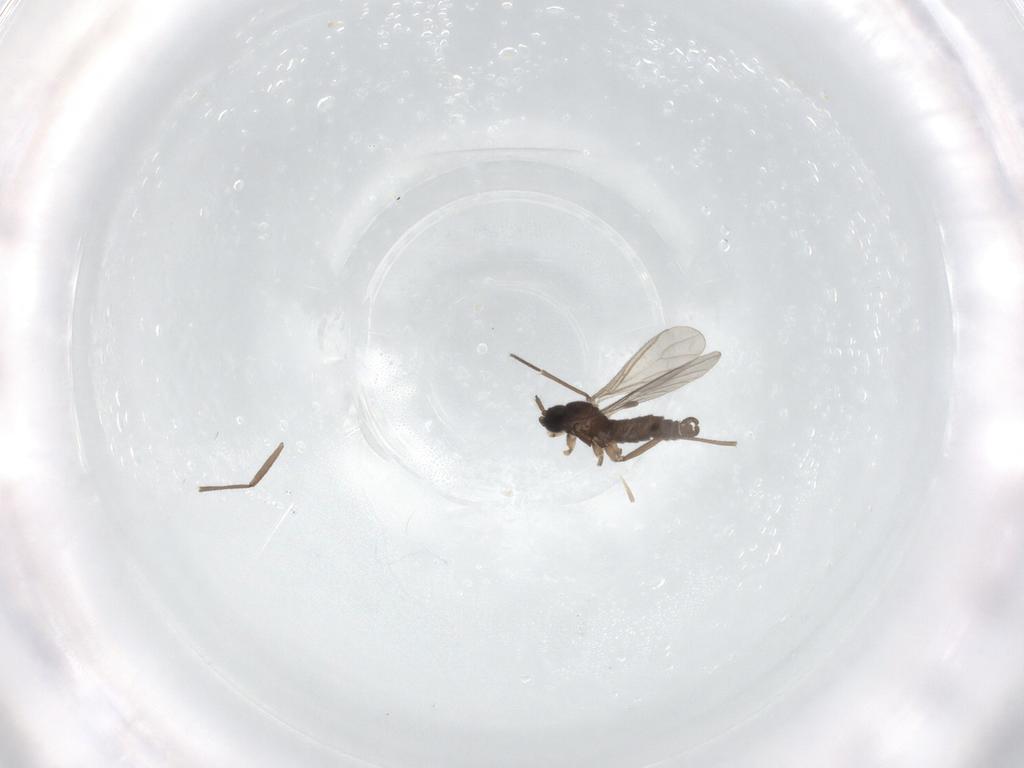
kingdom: Animalia
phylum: Arthropoda
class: Insecta
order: Diptera
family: Sciaridae
